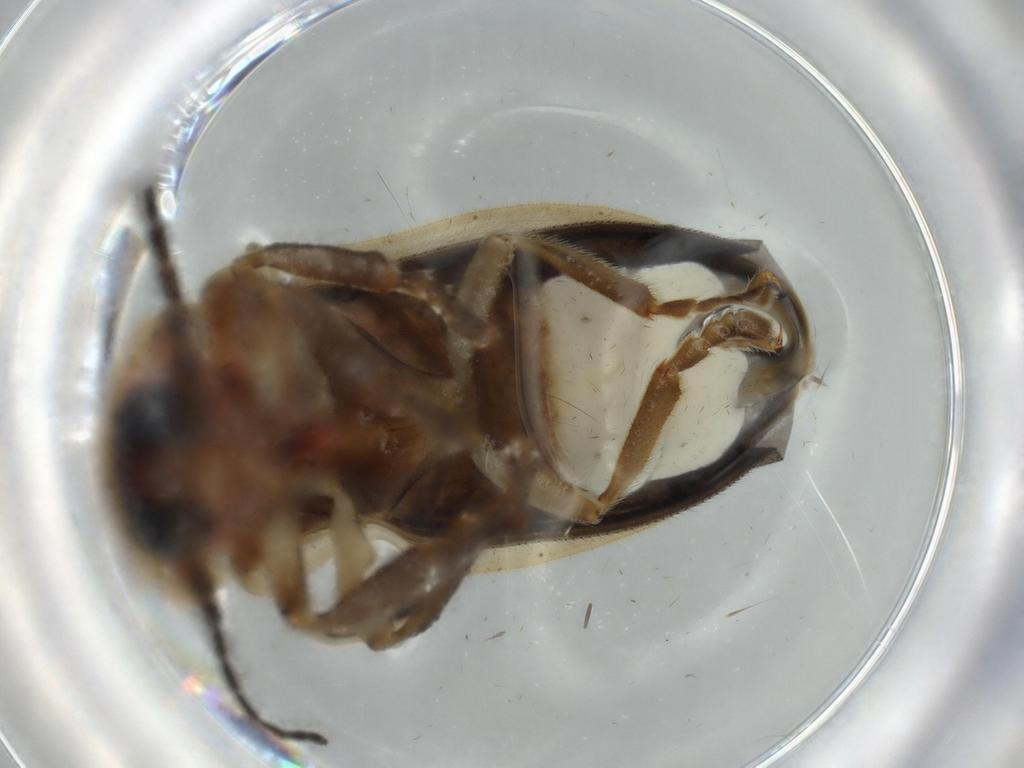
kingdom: Animalia
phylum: Arthropoda
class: Insecta
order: Coleoptera
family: Lampyridae
